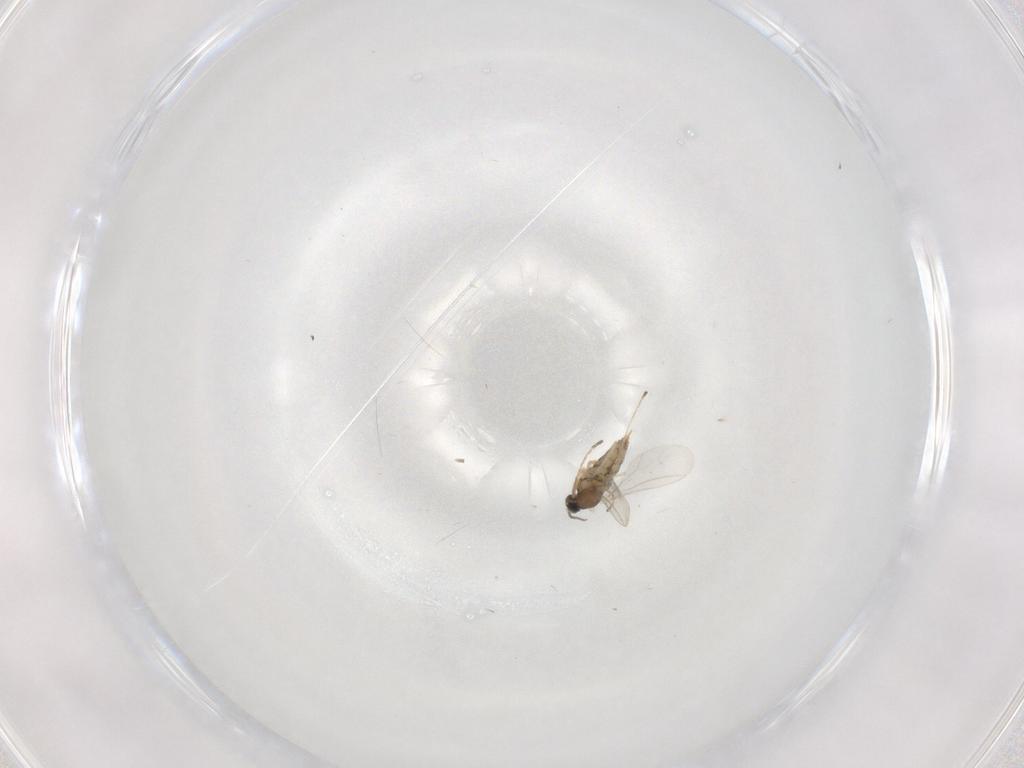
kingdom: Animalia
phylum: Arthropoda
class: Insecta
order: Diptera
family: Cecidomyiidae
